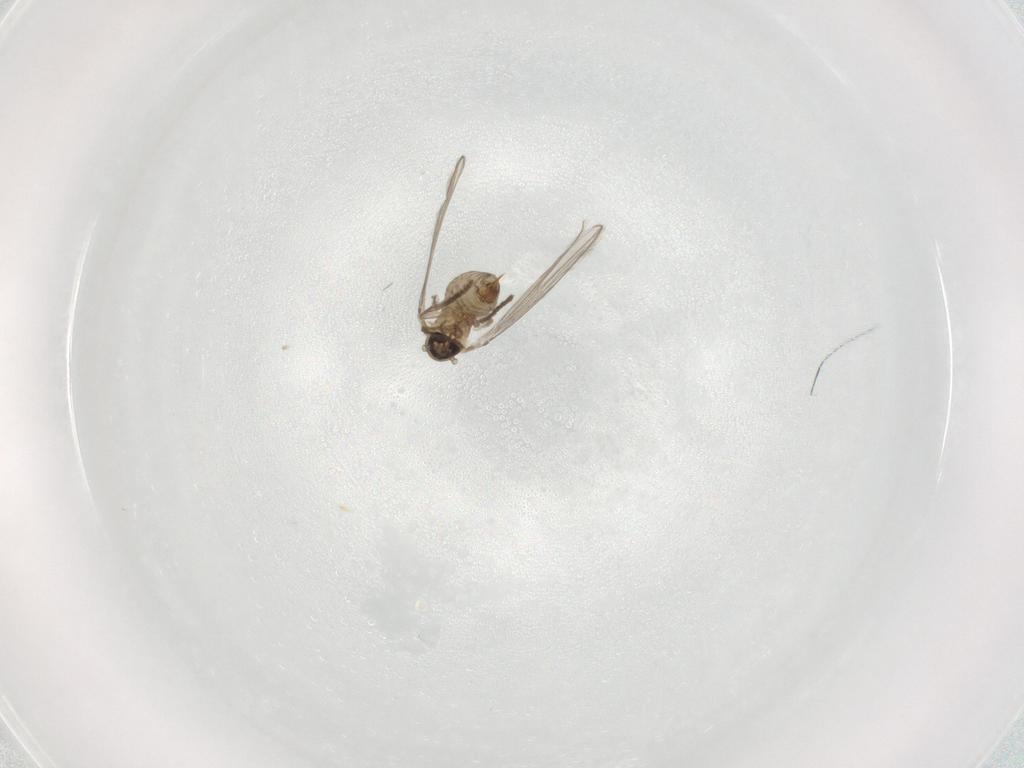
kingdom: Animalia
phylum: Arthropoda
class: Insecta
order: Diptera
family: Psychodidae
